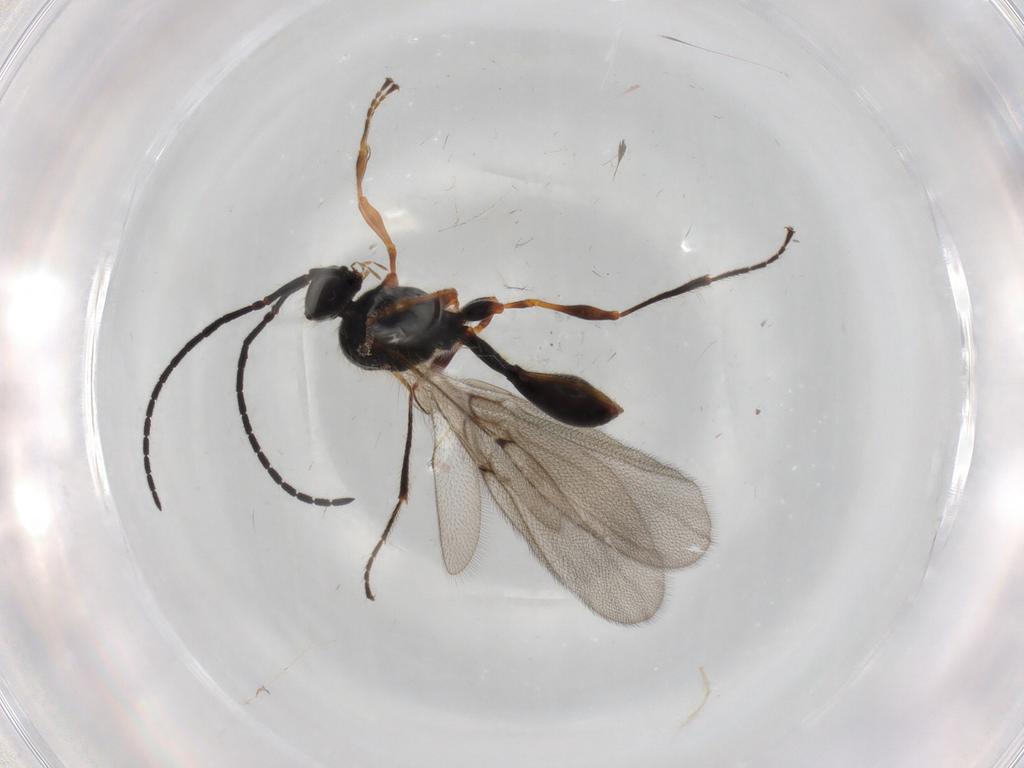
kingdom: Animalia
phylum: Arthropoda
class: Insecta
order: Hymenoptera
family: Diapriidae
